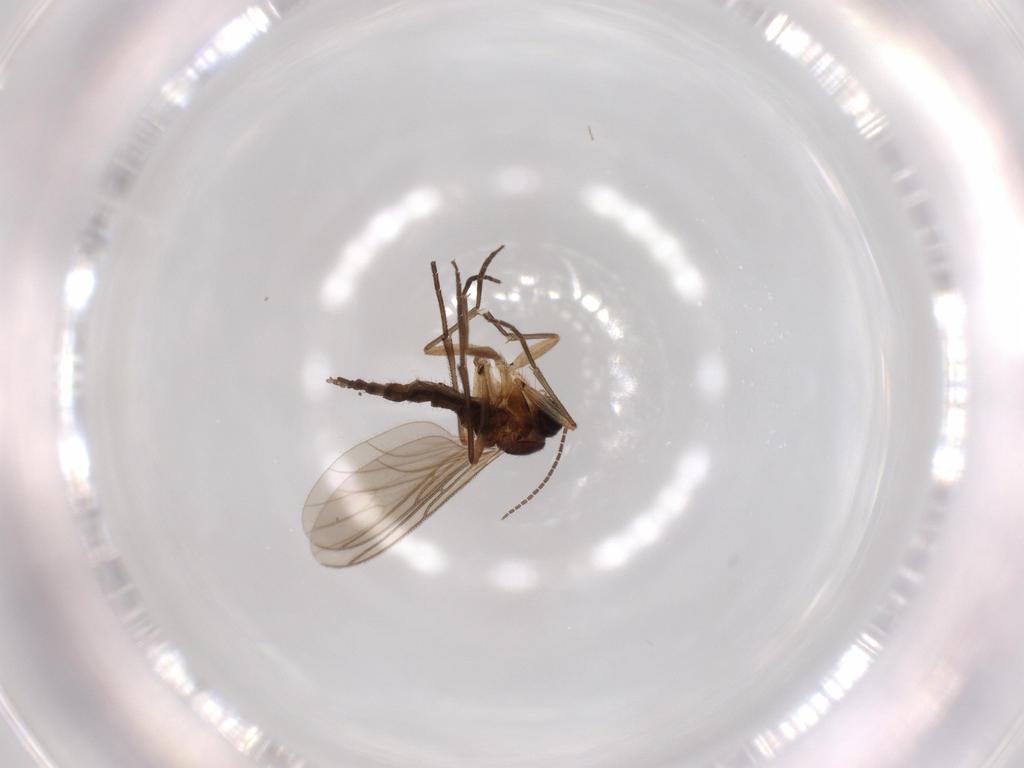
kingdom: Animalia
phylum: Arthropoda
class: Insecta
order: Diptera
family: Sciaridae
